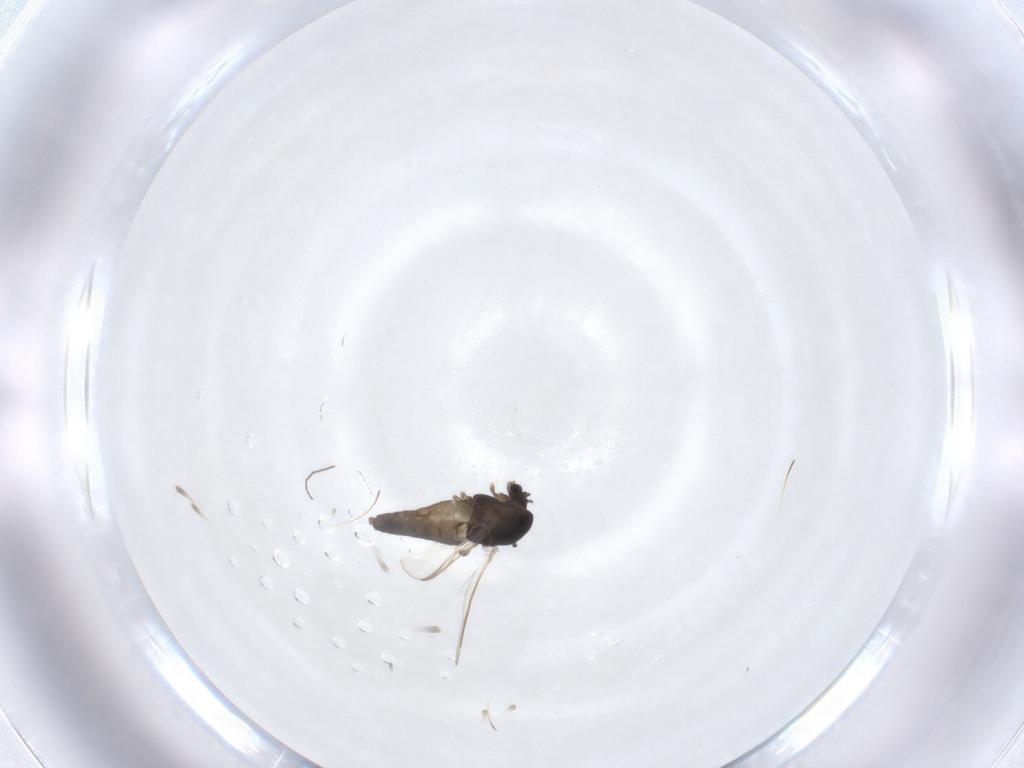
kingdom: Animalia
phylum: Arthropoda
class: Insecta
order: Diptera
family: Chironomidae
